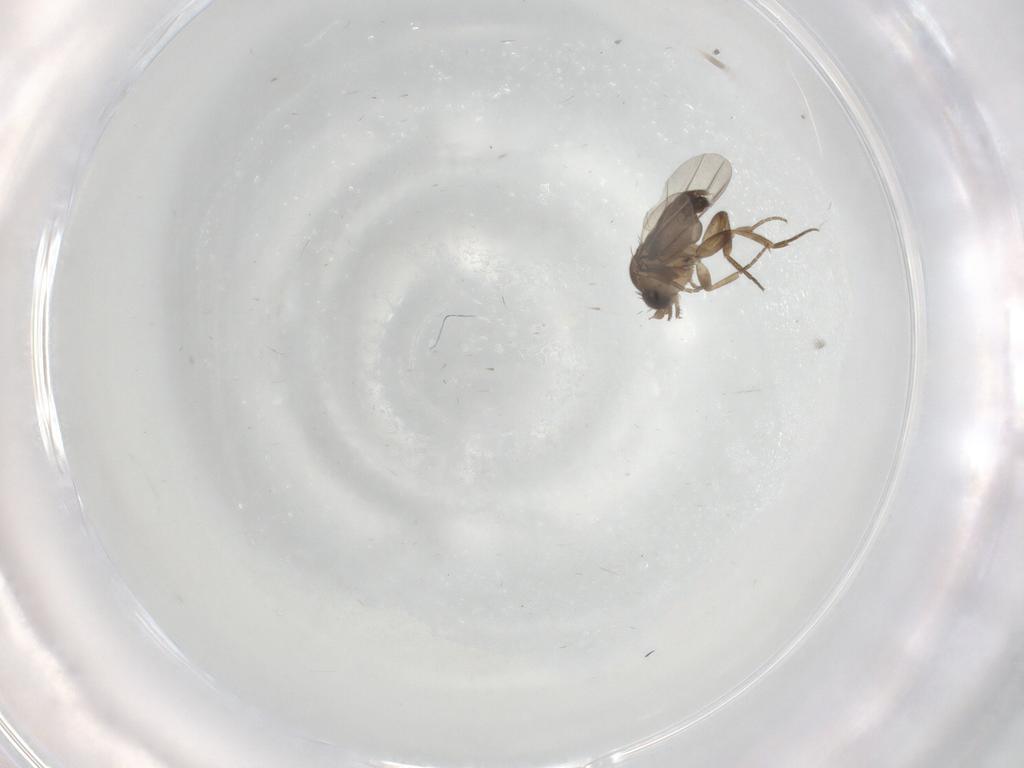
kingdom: Animalia
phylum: Arthropoda
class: Insecta
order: Diptera
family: Phoridae
